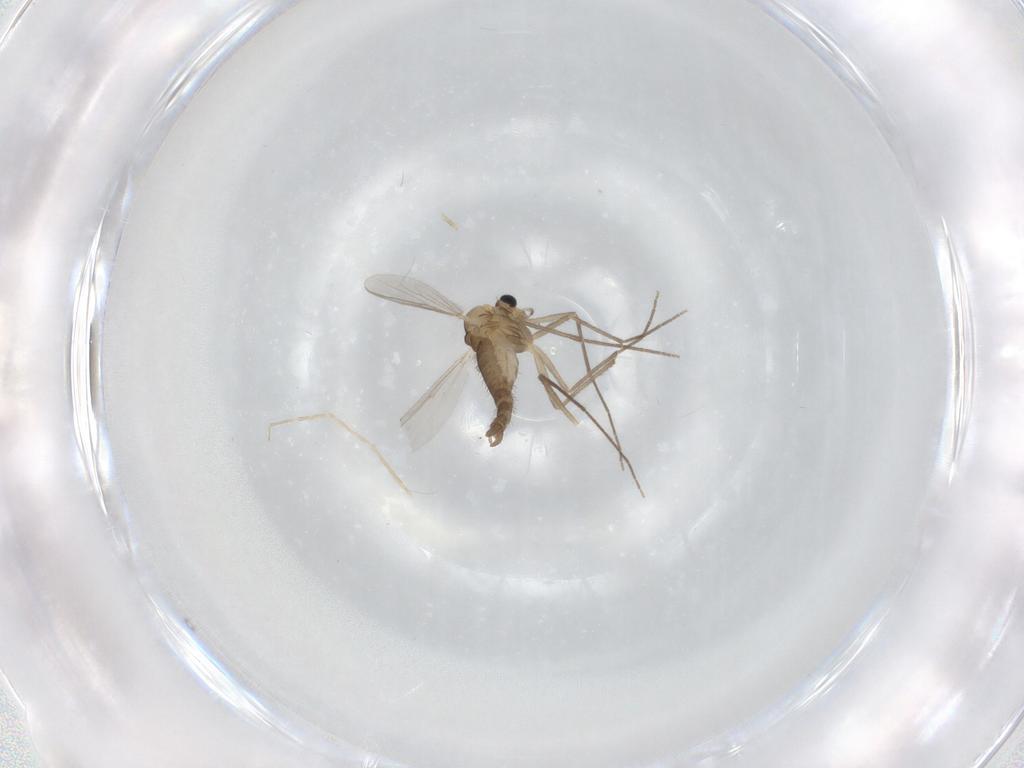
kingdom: Animalia
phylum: Arthropoda
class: Insecta
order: Diptera
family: Chironomidae
